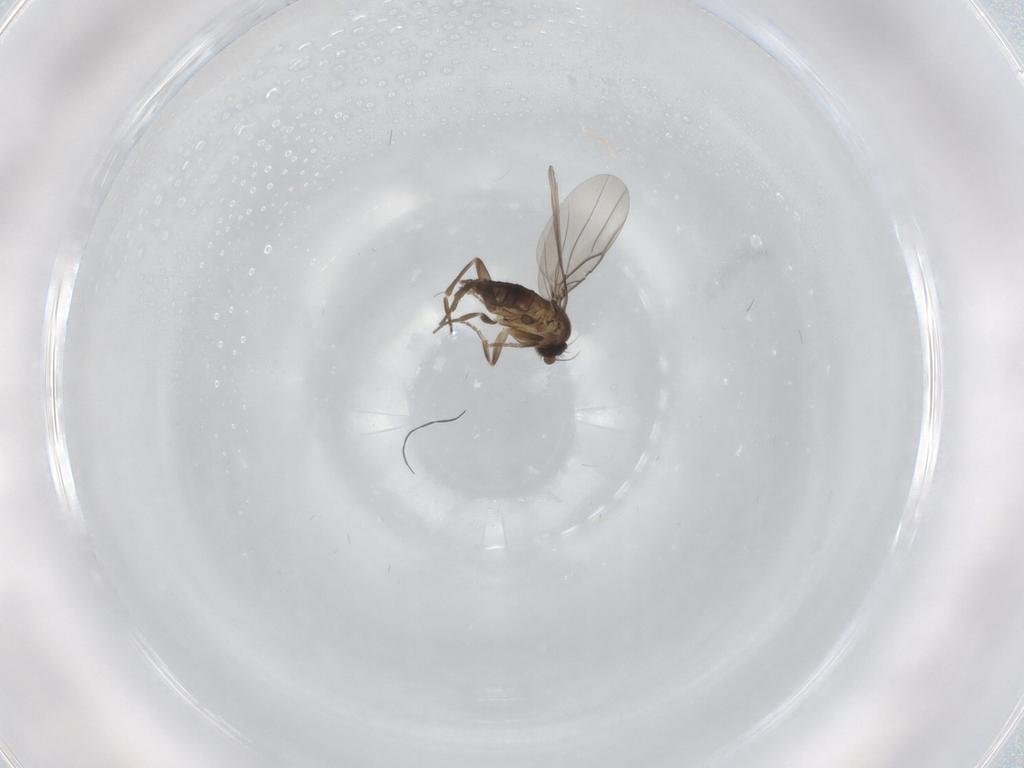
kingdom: Animalia
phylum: Arthropoda
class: Insecta
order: Diptera
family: Phoridae
